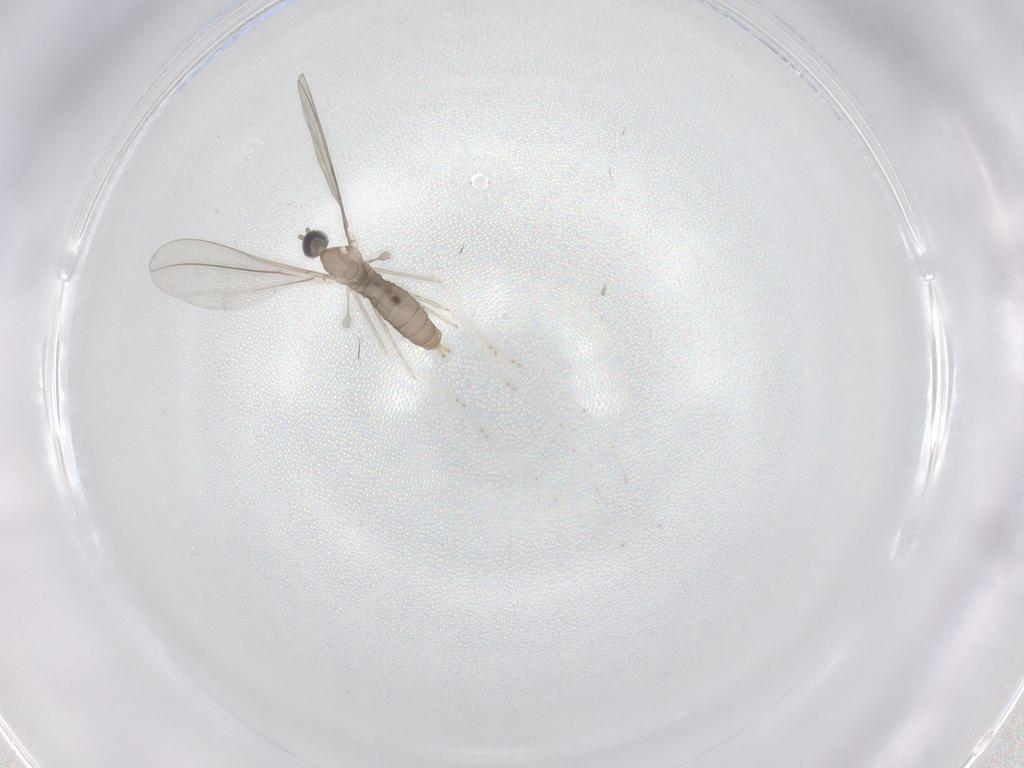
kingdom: Animalia
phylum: Arthropoda
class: Insecta
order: Diptera
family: Cecidomyiidae
